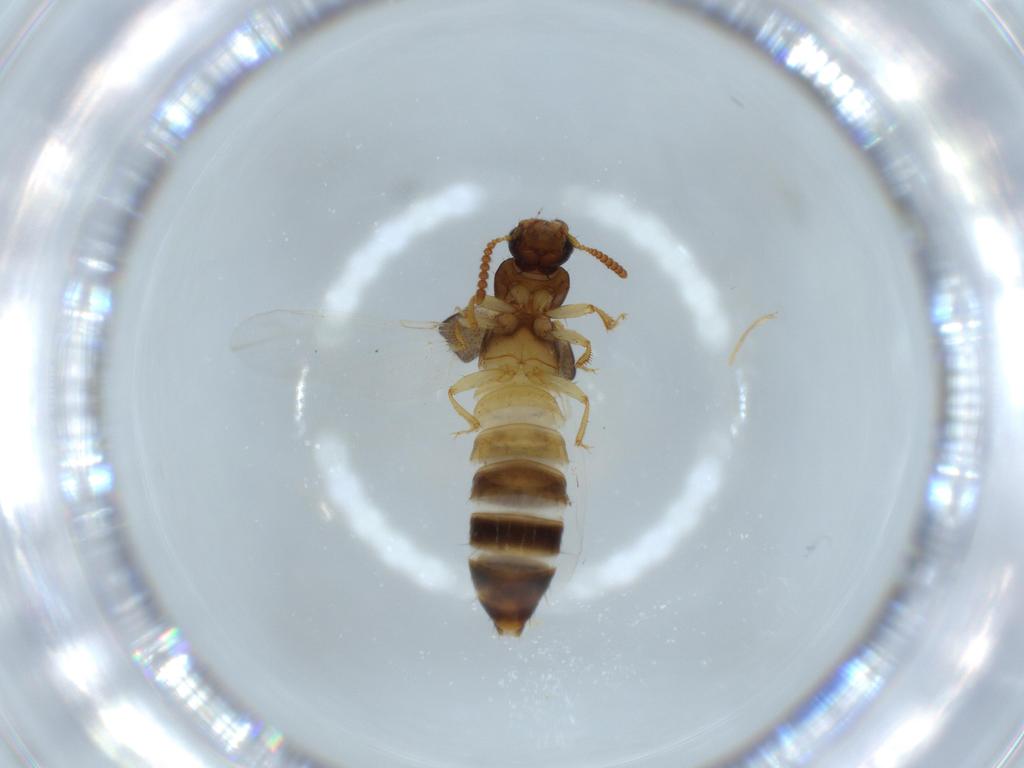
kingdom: Animalia
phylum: Arthropoda
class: Insecta
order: Coleoptera
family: Staphylinidae
